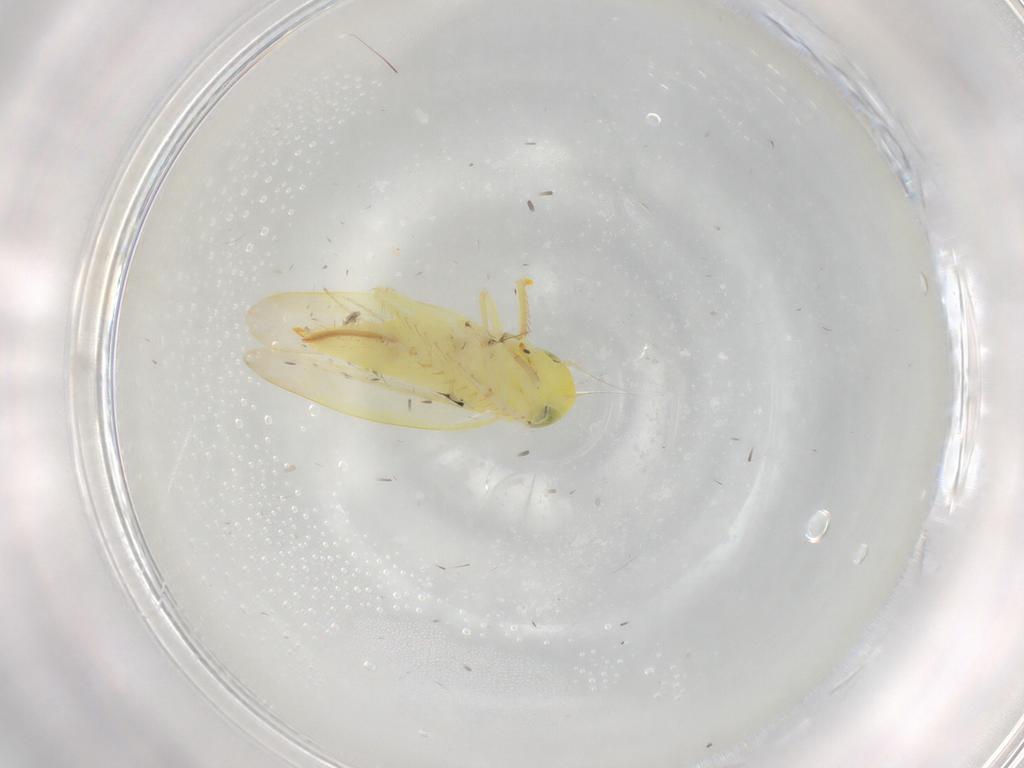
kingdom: Animalia
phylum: Arthropoda
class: Insecta
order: Hemiptera
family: Cicadellidae
